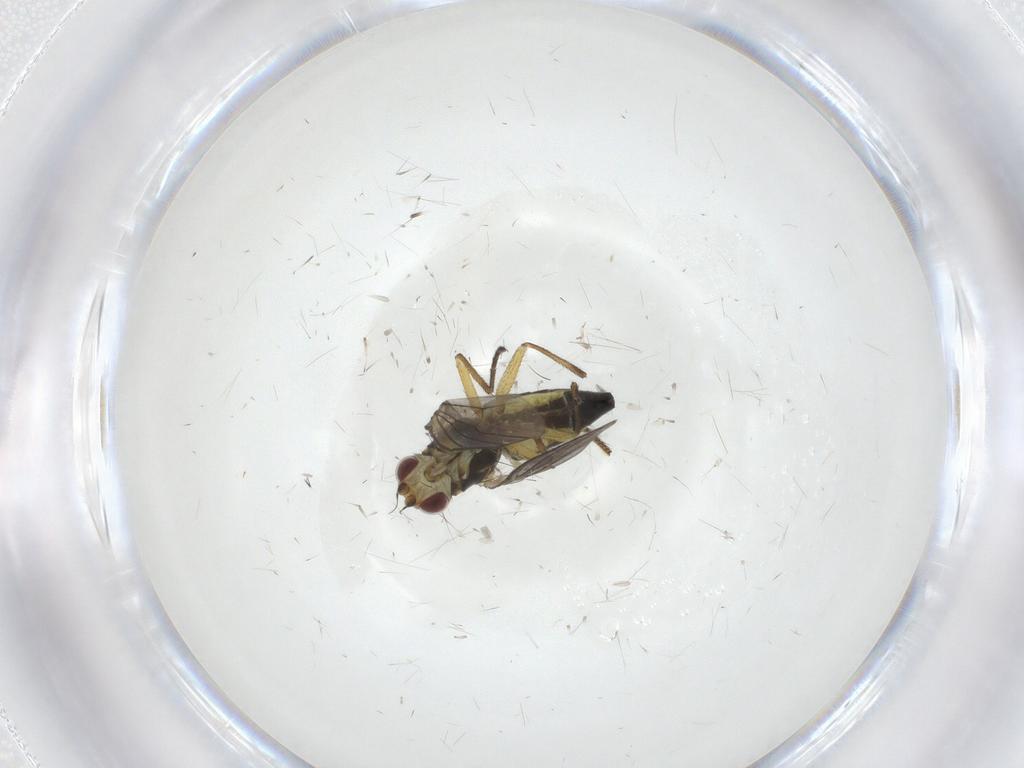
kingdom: Animalia
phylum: Arthropoda
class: Insecta
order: Diptera
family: Agromyzidae
